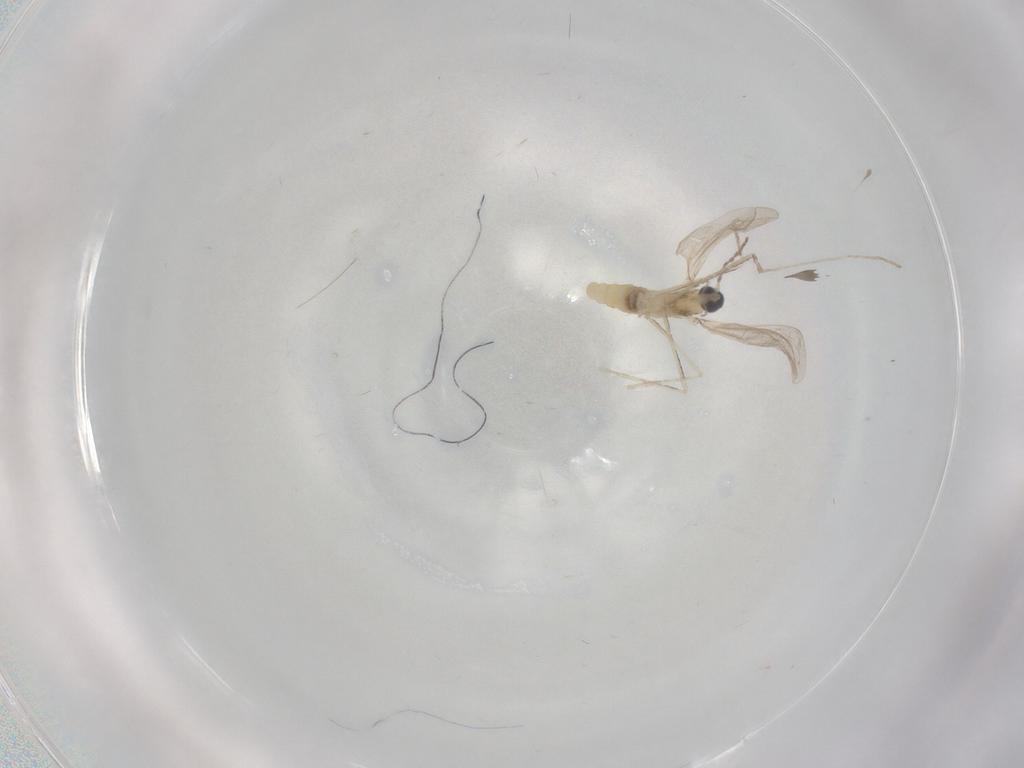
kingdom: Animalia
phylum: Arthropoda
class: Insecta
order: Diptera
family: Cecidomyiidae
